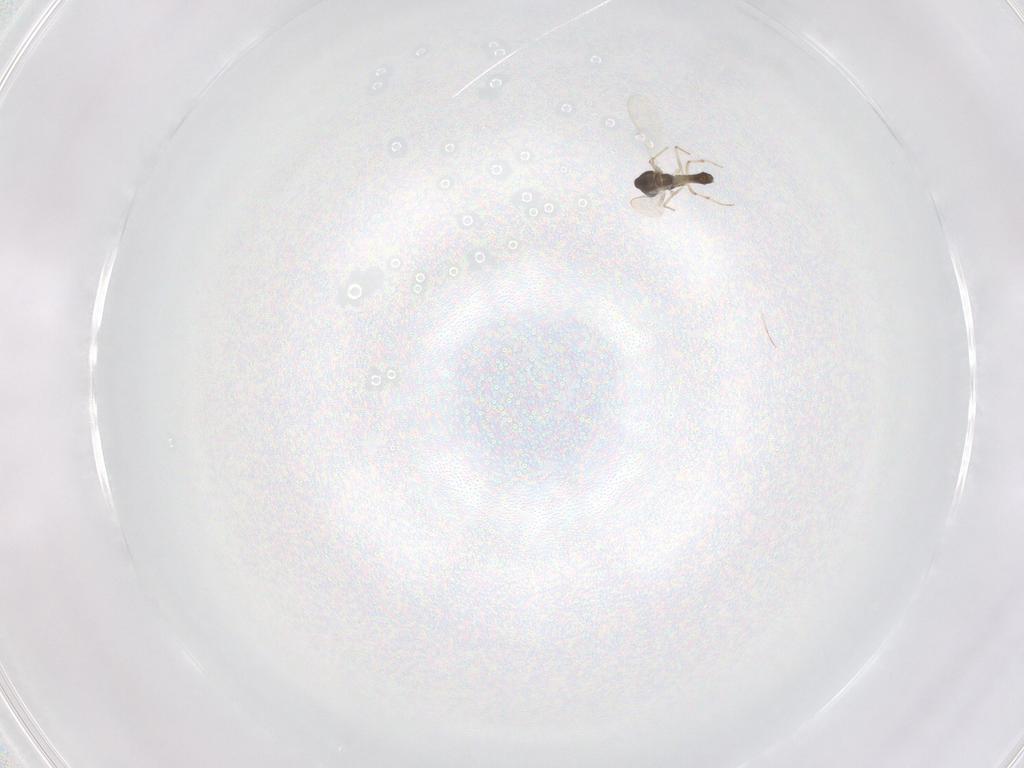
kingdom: Animalia
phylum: Arthropoda
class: Insecta
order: Diptera
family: Chironomidae
